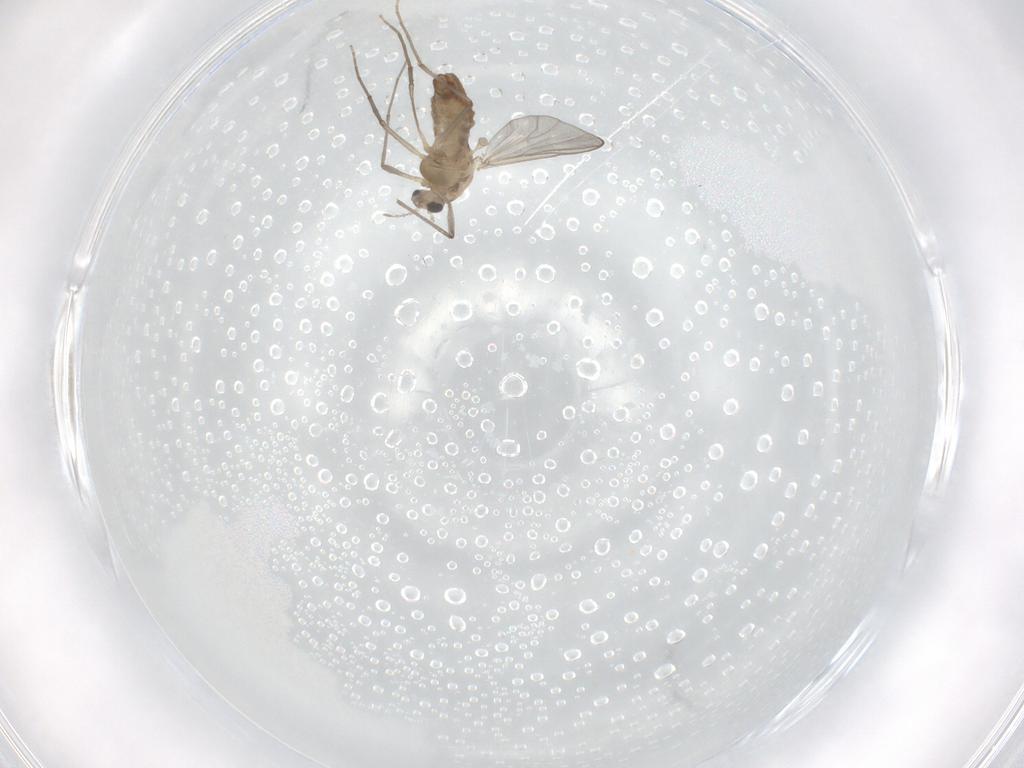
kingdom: Animalia
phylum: Arthropoda
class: Insecta
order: Diptera
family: Chironomidae
